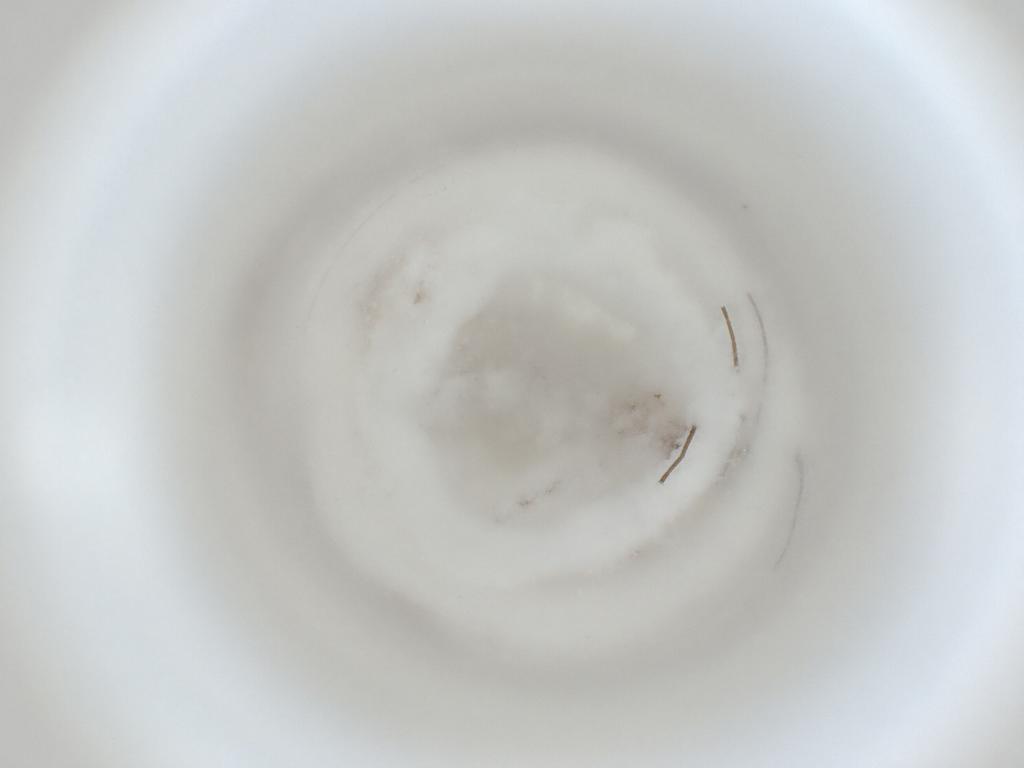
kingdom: Animalia
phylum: Arthropoda
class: Insecta
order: Diptera
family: Cecidomyiidae
